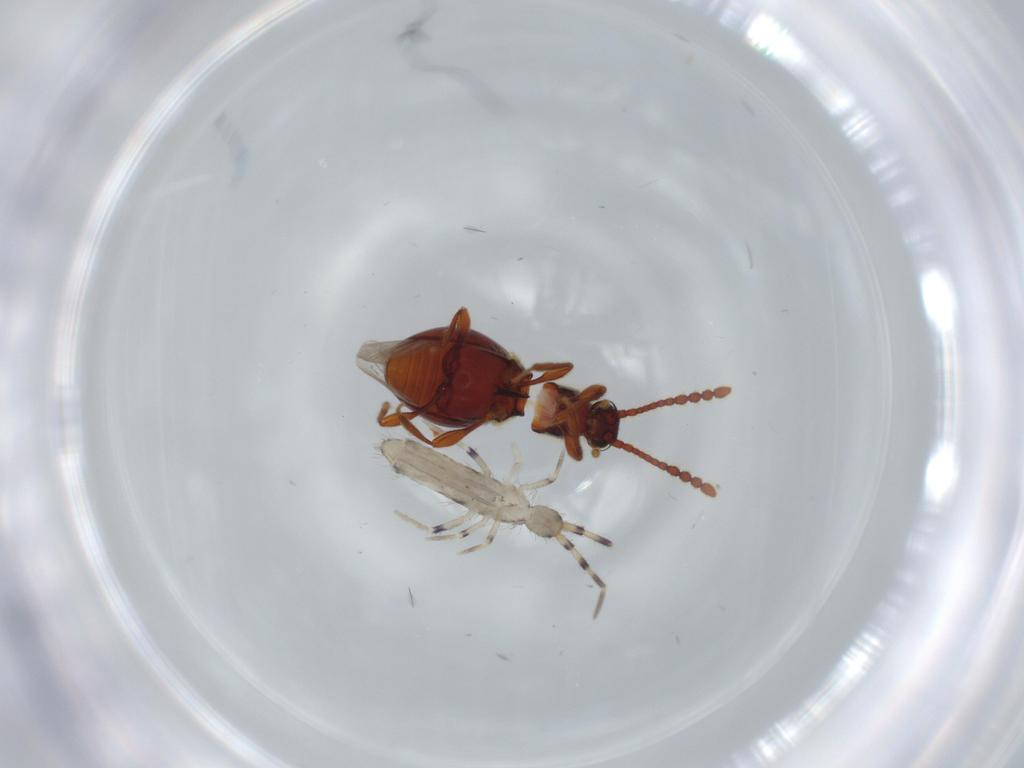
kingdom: Animalia
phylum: Arthropoda
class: Collembola
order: Entomobryomorpha
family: Entomobryidae
